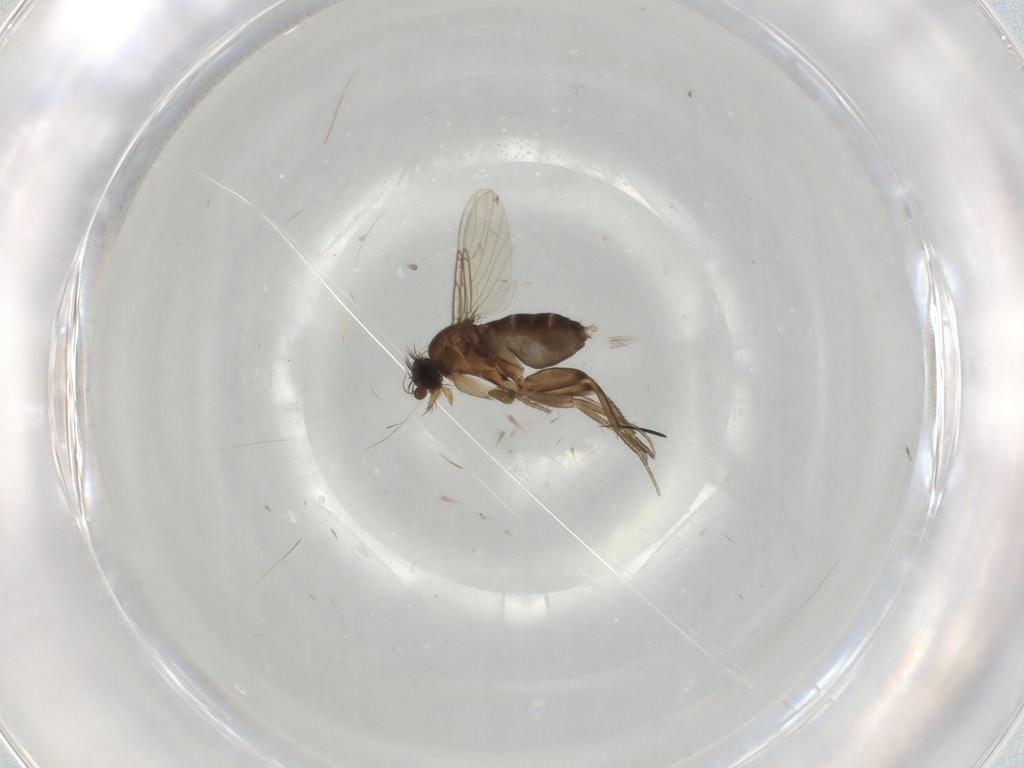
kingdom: Animalia
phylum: Arthropoda
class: Insecta
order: Diptera
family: Phoridae
